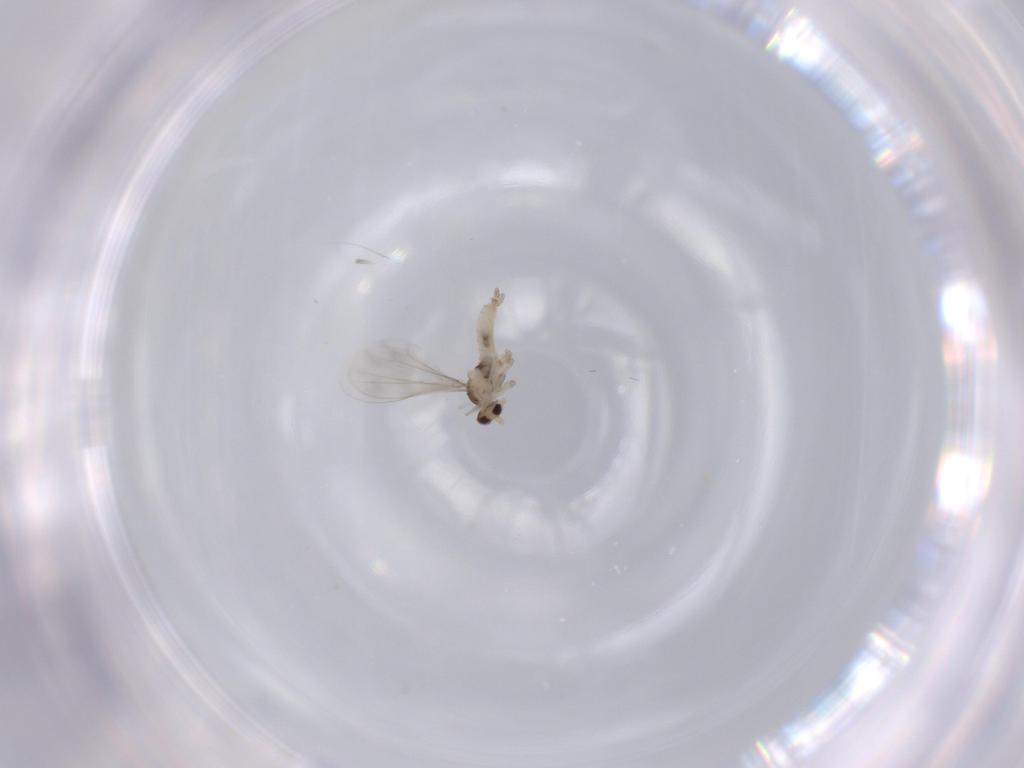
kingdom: Animalia
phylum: Arthropoda
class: Insecta
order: Diptera
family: Cecidomyiidae
